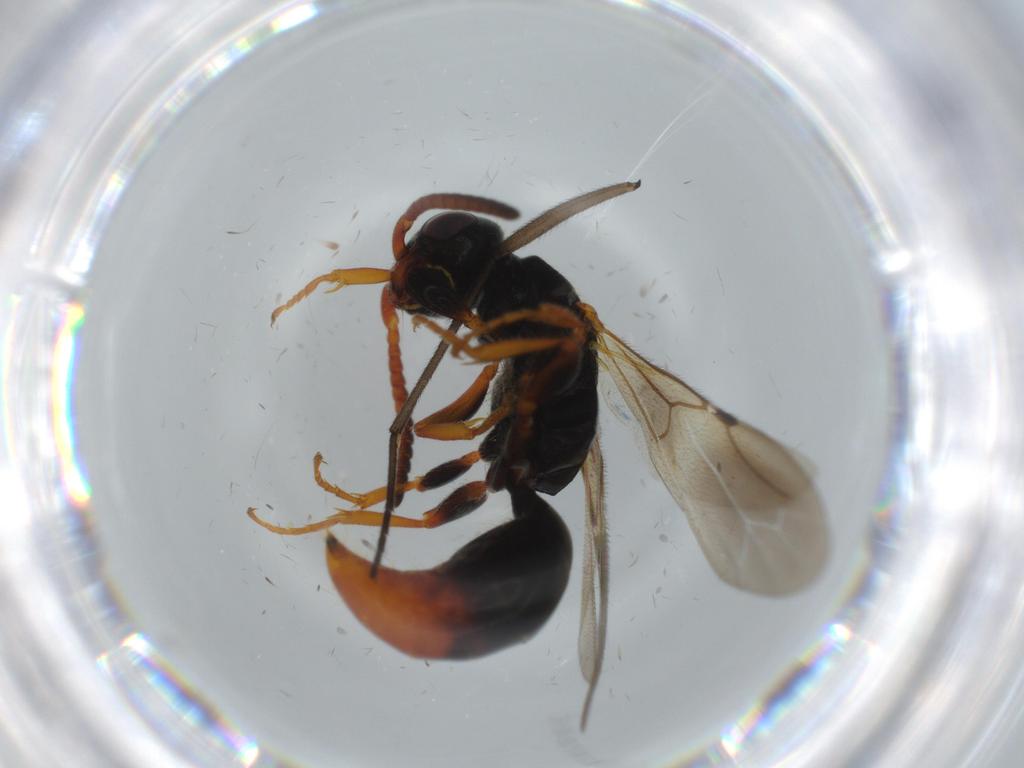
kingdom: Animalia
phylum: Arthropoda
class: Insecta
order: Hymenoptera
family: Bethylidae
